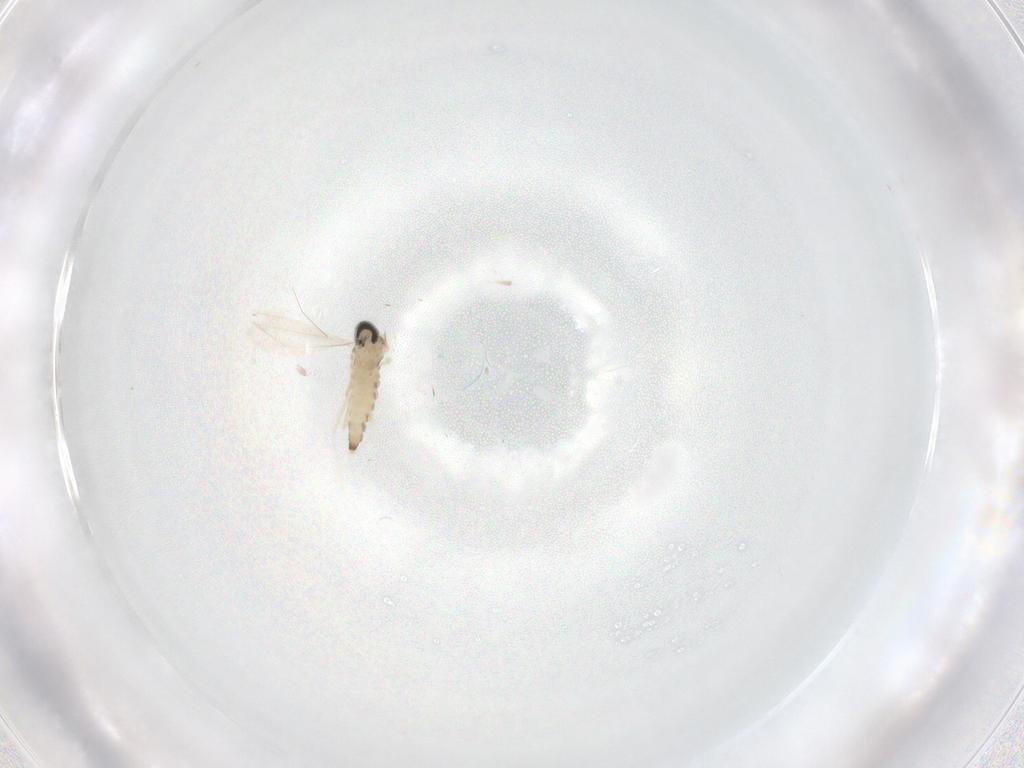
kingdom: Animalia
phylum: Arthropoda
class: Insecta
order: Diptera
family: Cecidomyiidae
